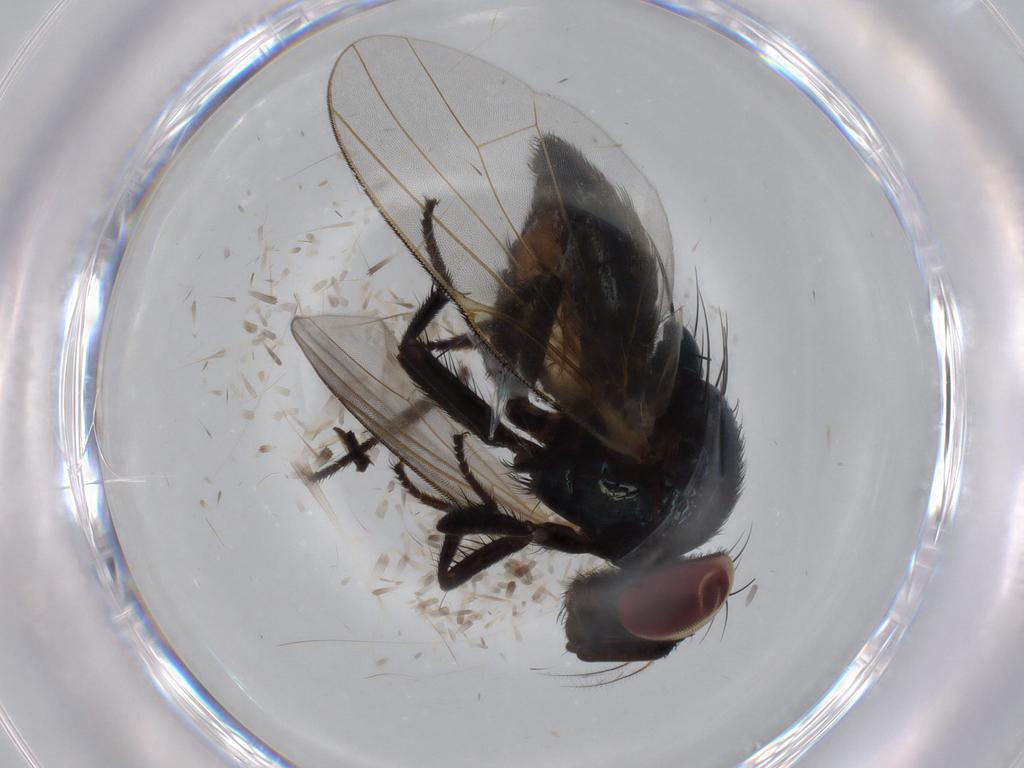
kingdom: Animalia
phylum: Arthropoda
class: Insecta
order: Diptera
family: Lonchaeidae
